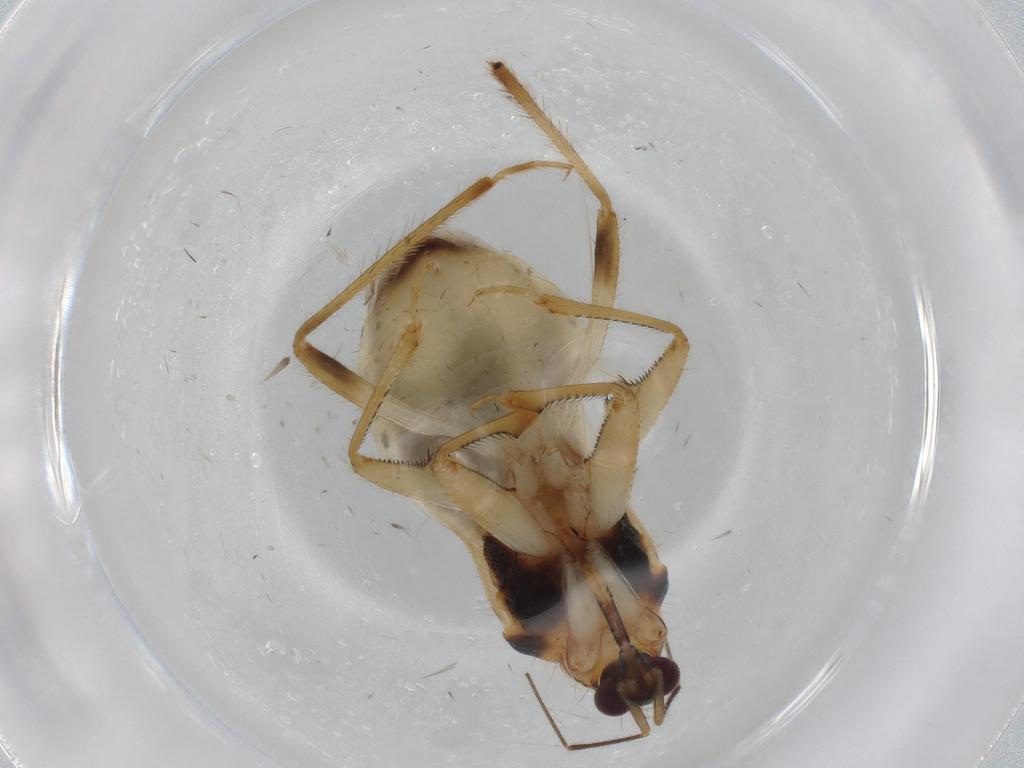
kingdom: Animalia
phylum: Arthropoda
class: Insecta
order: Hemiptera
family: Nabidae
